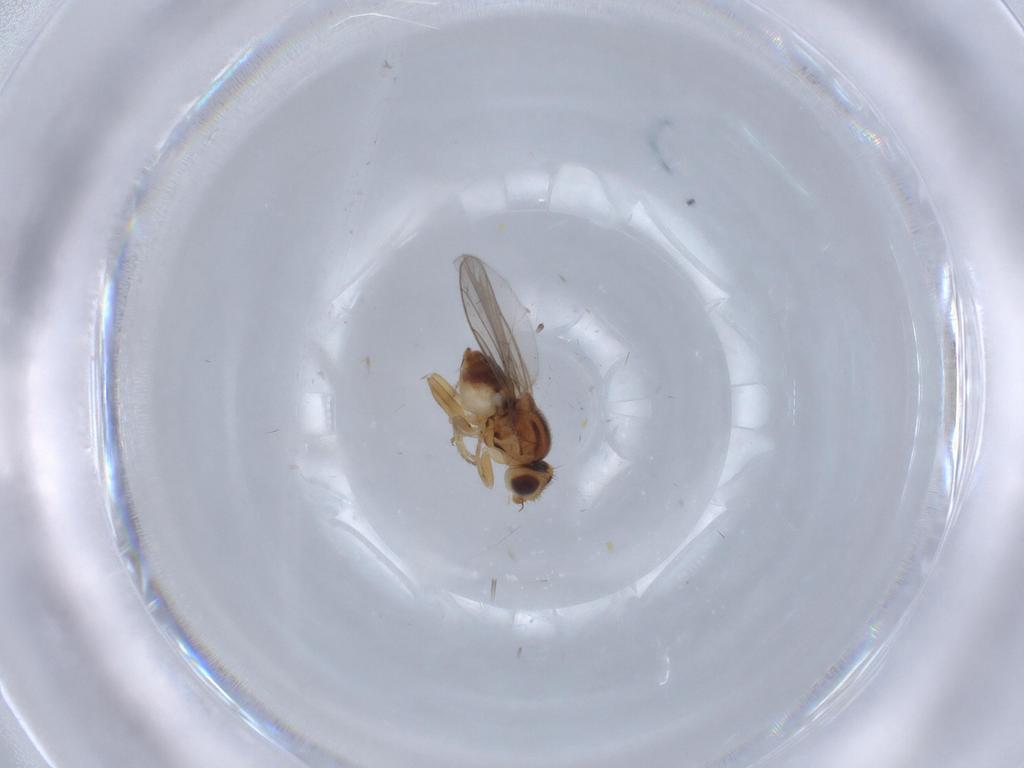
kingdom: Animalia
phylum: Arthropoda
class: Insecta
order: Diptera
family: Chloropidae
